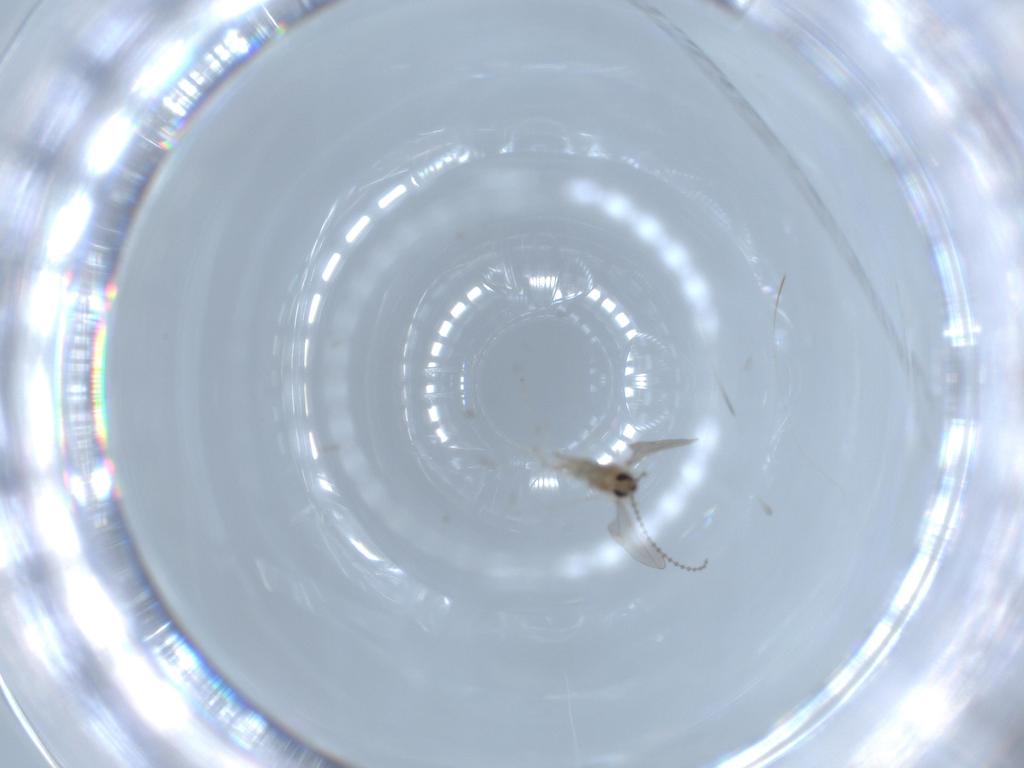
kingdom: Animalia
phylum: Arthropoda
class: Insecta
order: Diptera
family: Cecidomyiidae
